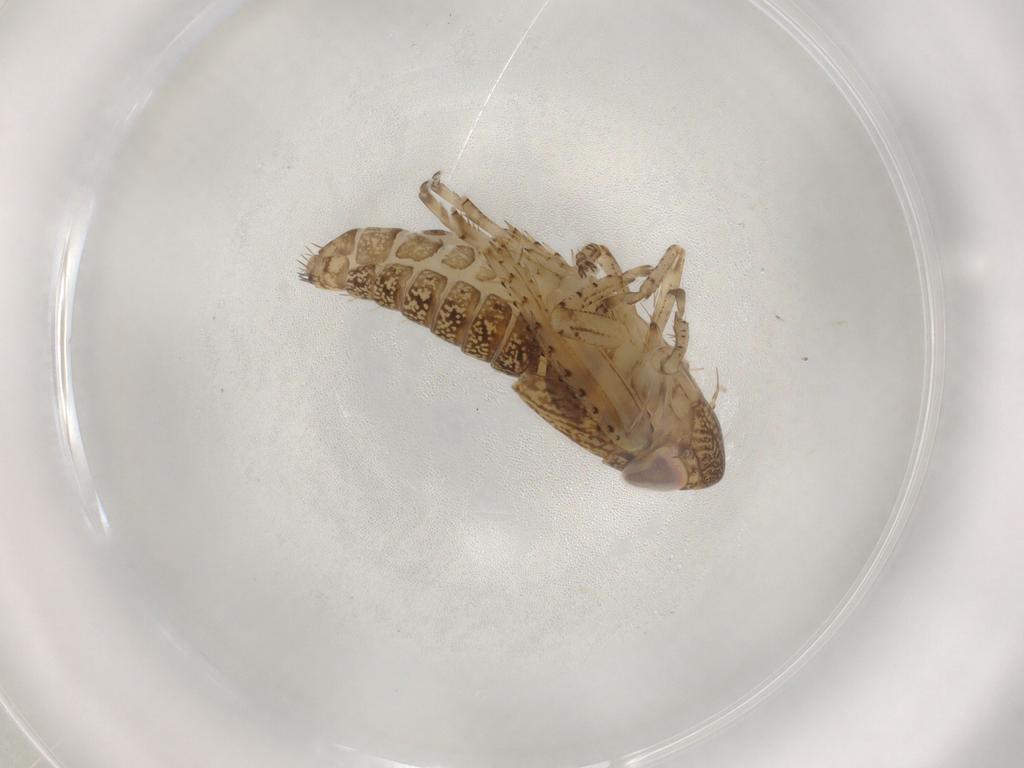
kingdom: Animalia
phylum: Arthropoda
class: Insecta
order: Hemiptera
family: Cicadellidae
